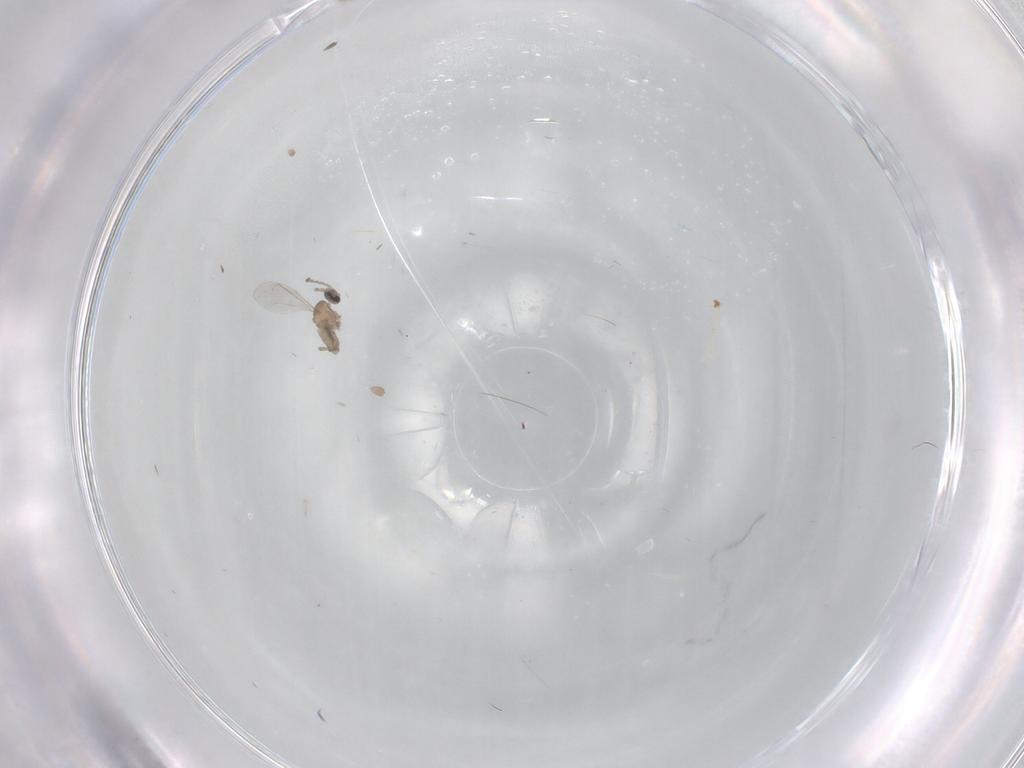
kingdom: Animalia
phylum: Arthropoda
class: Insecta
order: Diptera
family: Cecidomyiidae
